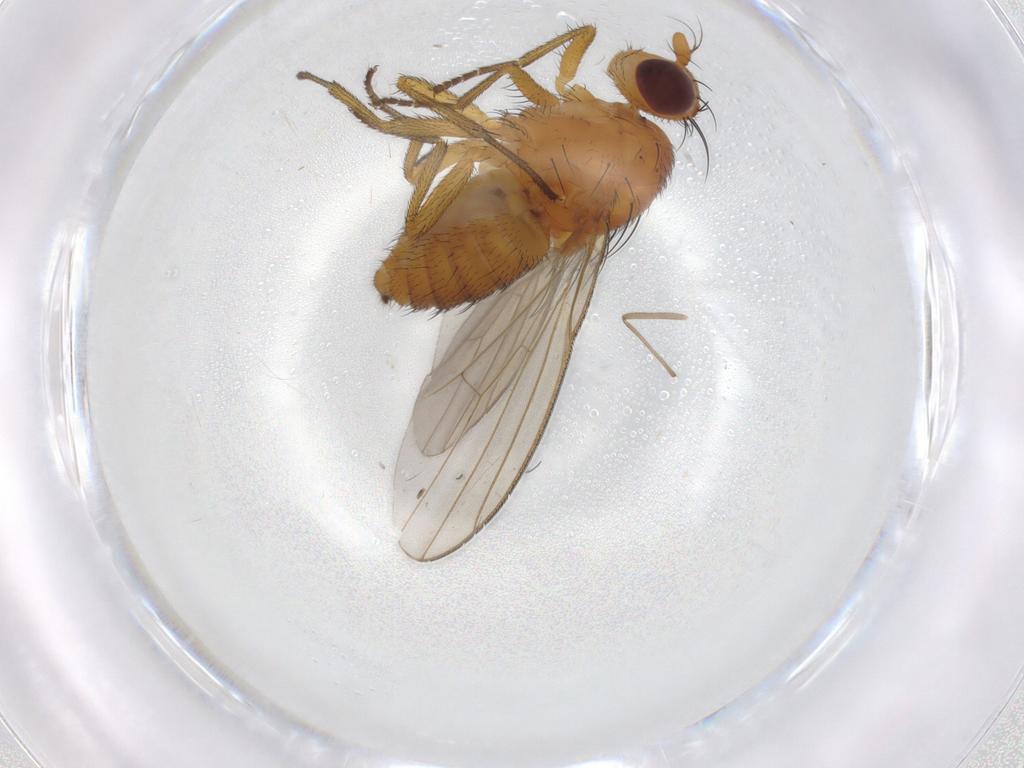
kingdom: Animalia
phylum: Arthropoda
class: Insecta
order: Diptera
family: Lauxaniidae
